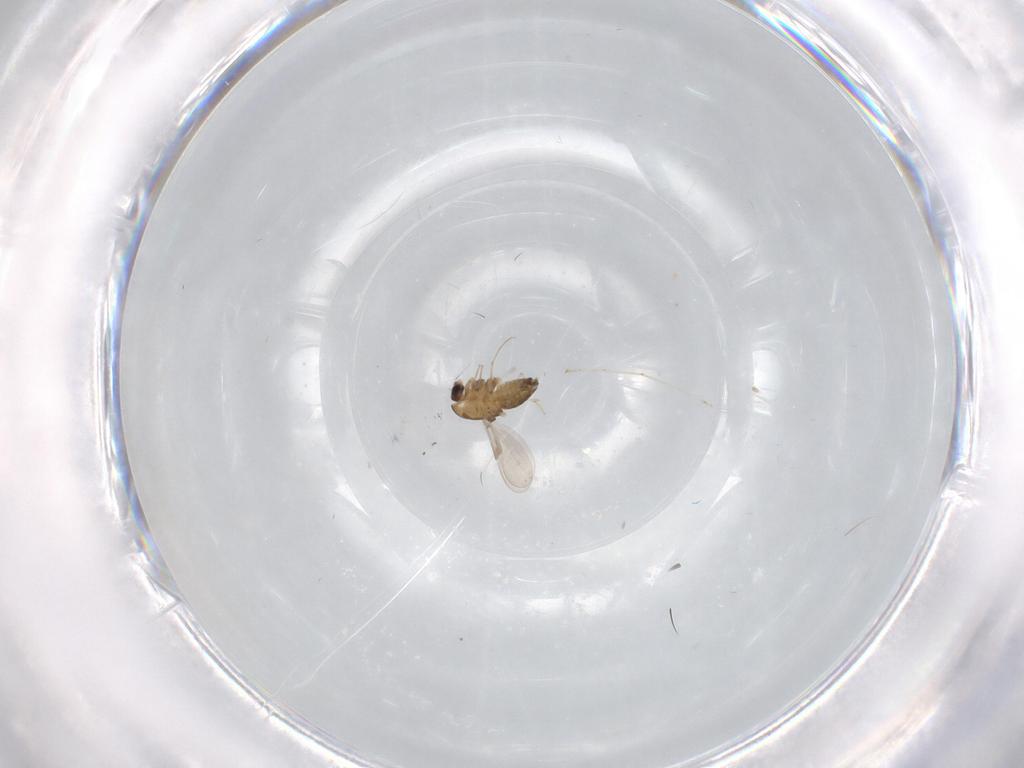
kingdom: Animalia
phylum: Arthropoda
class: Insecta
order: Diptera
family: Cecidomyiidae
